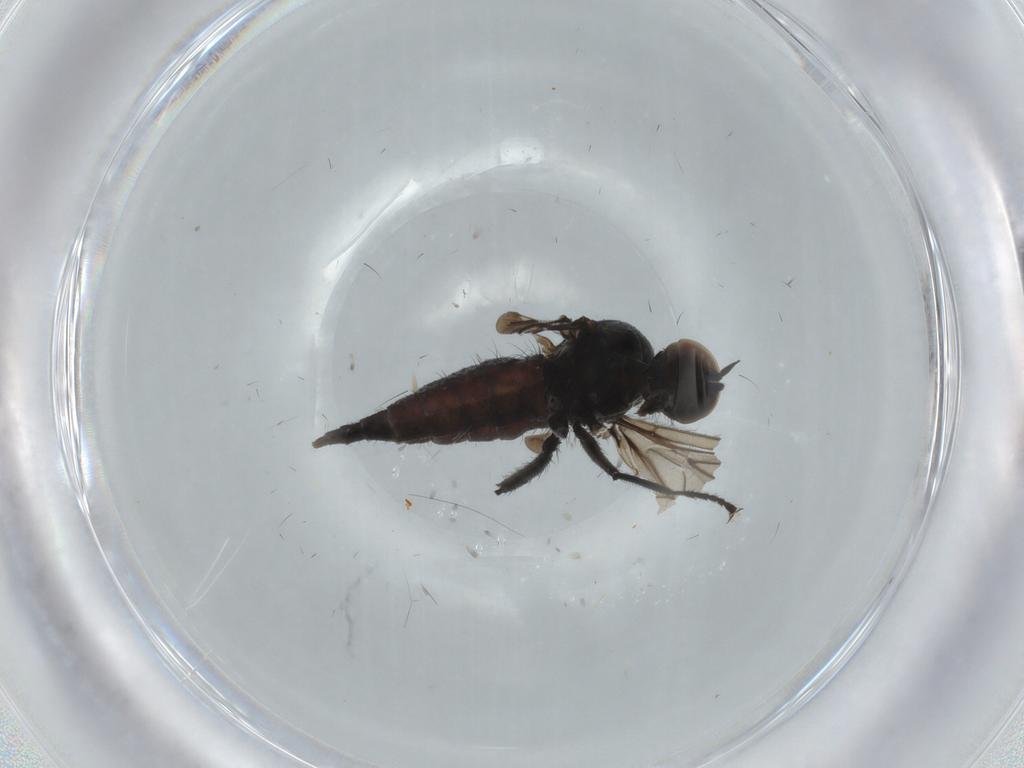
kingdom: Animalia
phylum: Arthropoda
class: Insecta
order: Diptera
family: Hybotidae
